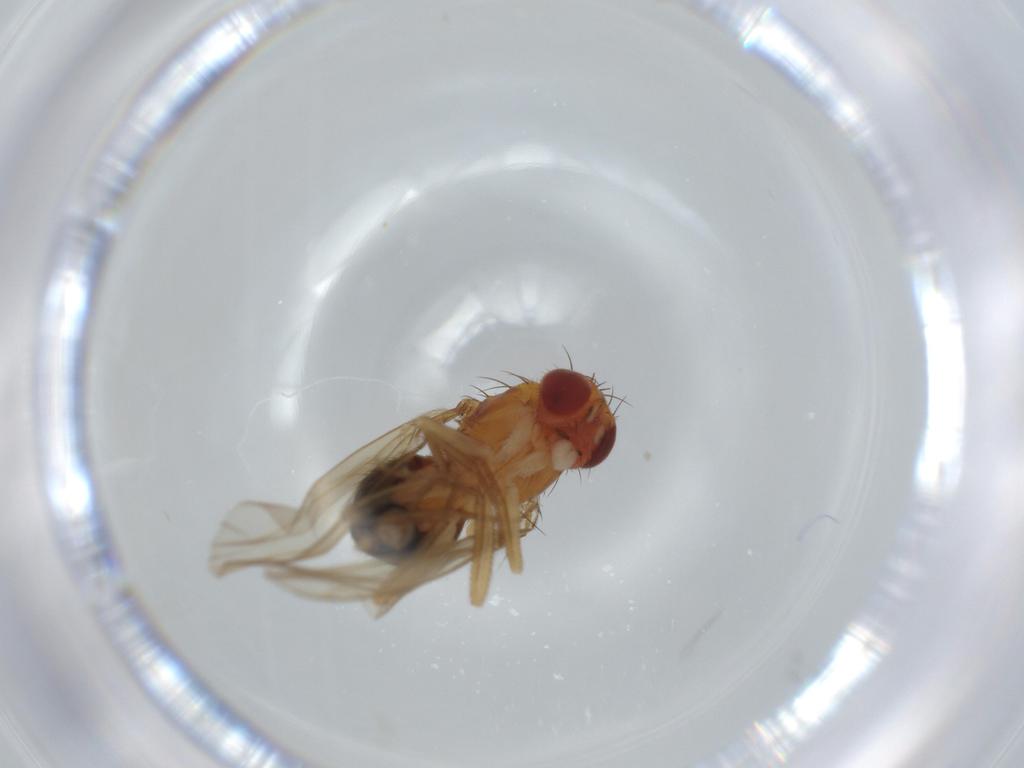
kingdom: Animalia
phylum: Arthropoda
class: Insecta
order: Diptera
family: Drosophilidae
